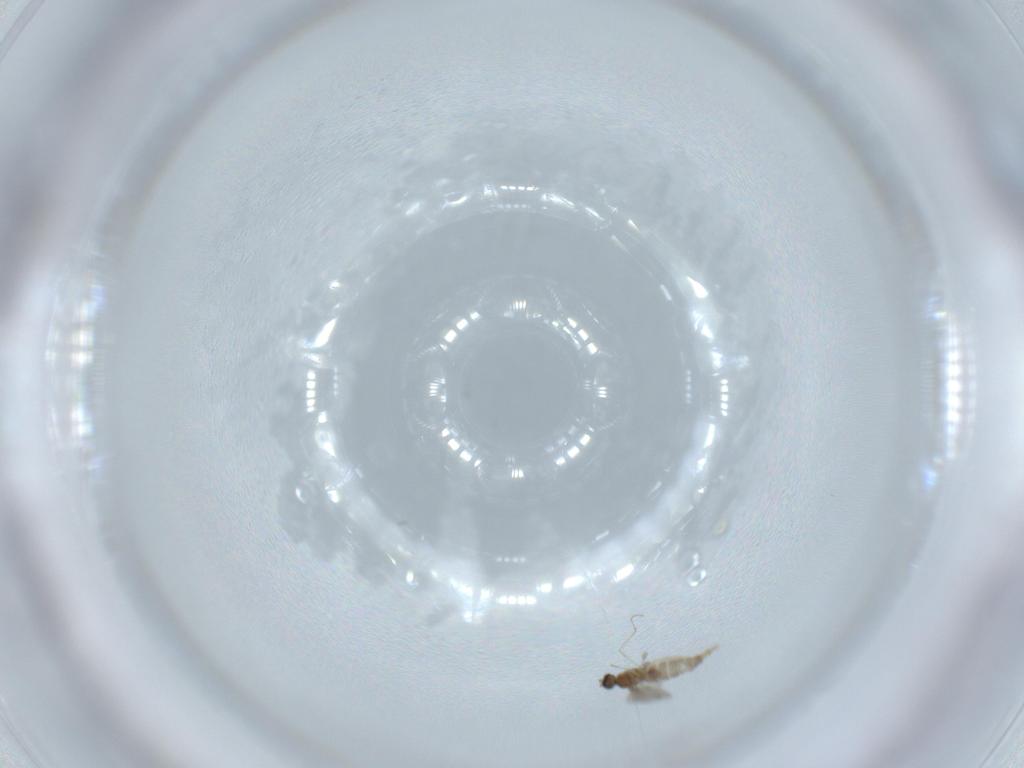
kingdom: Animalia
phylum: Arthropoda
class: Insecta
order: Diptera
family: Cecidomyiidae
